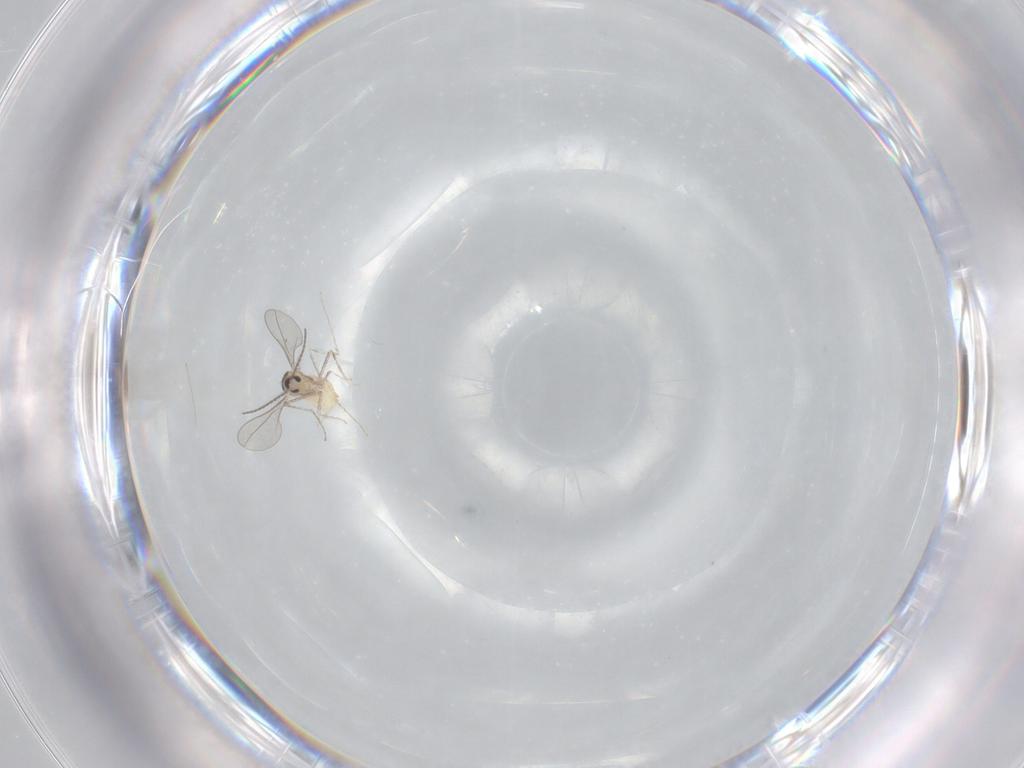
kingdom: Animalia
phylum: Arthropoda
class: Insecta
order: Diptera
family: Cecidomyiidae
